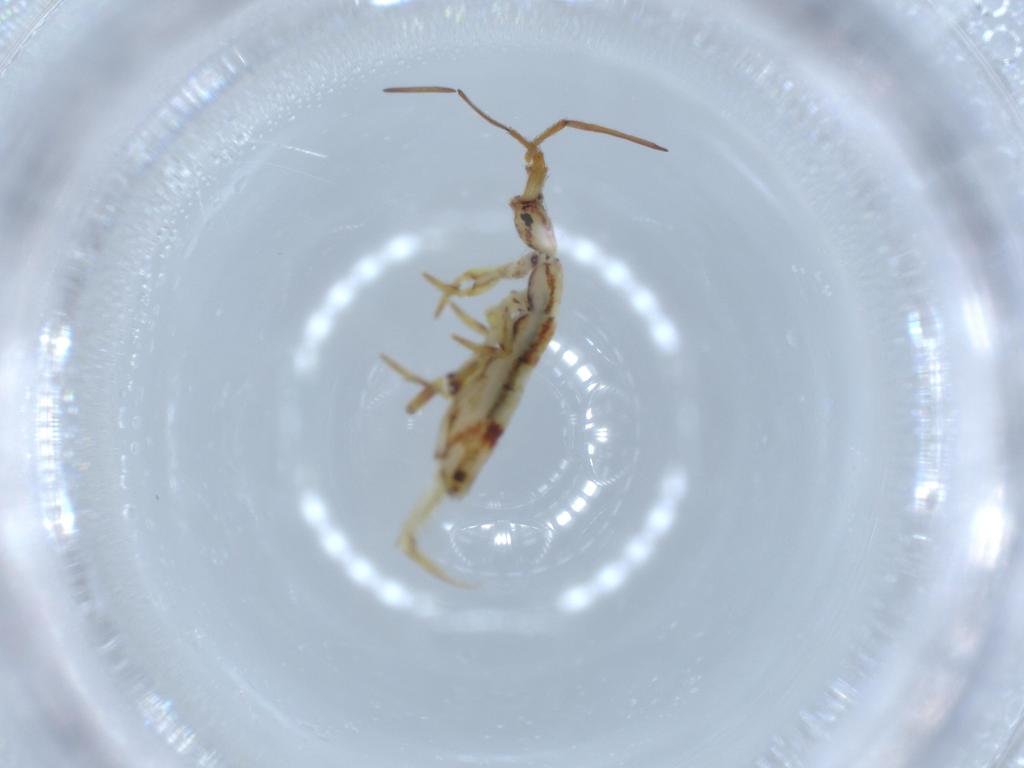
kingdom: Animalia
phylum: Arthropoda
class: Collembola
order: Entomobryomorpha
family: Orchesellidae
